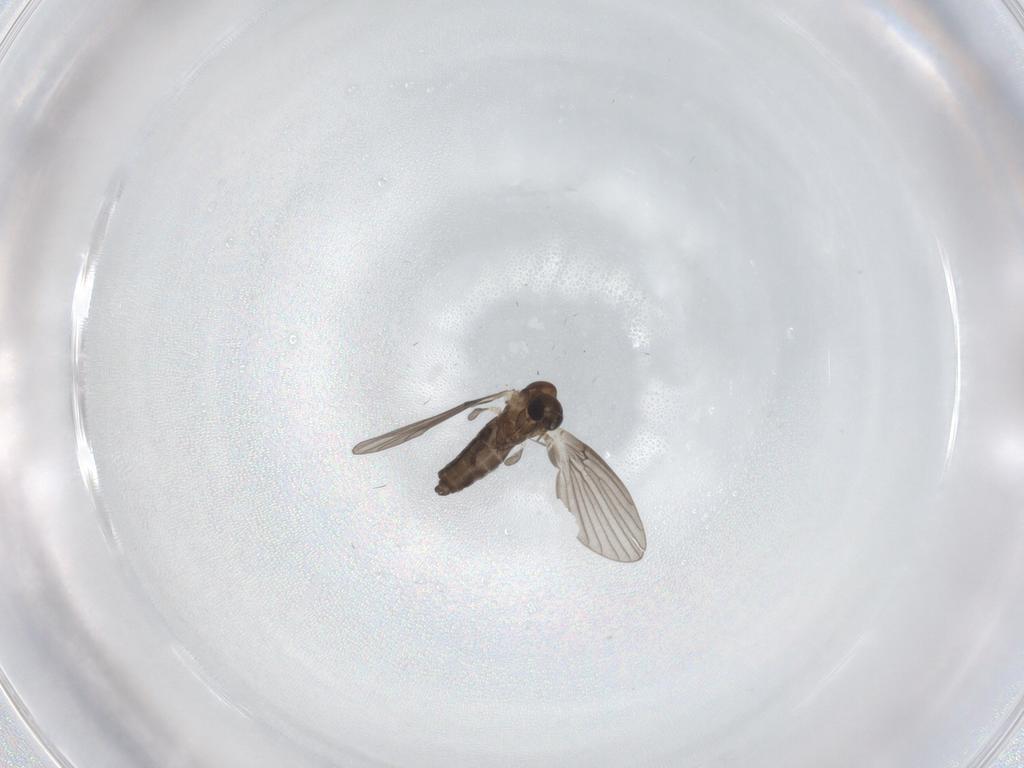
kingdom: Animalia
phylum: Arthropoda
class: Insecta
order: Diptera
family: Psychodidae
